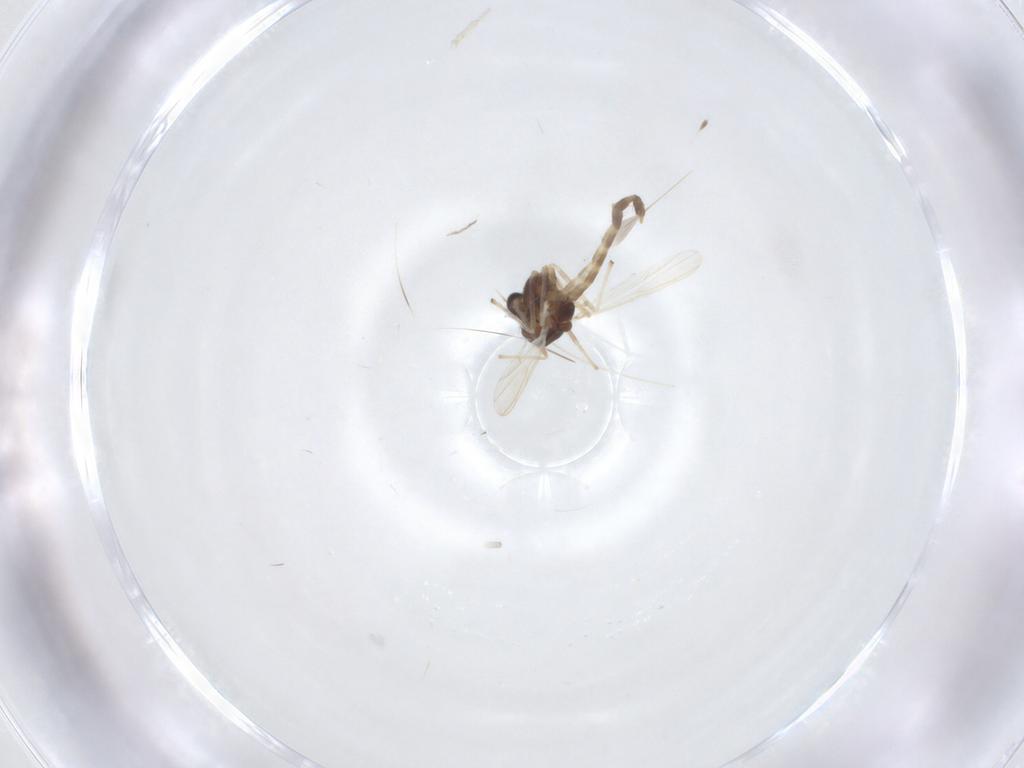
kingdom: Animalia
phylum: Arthropoda
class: Insecta
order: Diptera
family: Chironomidae
